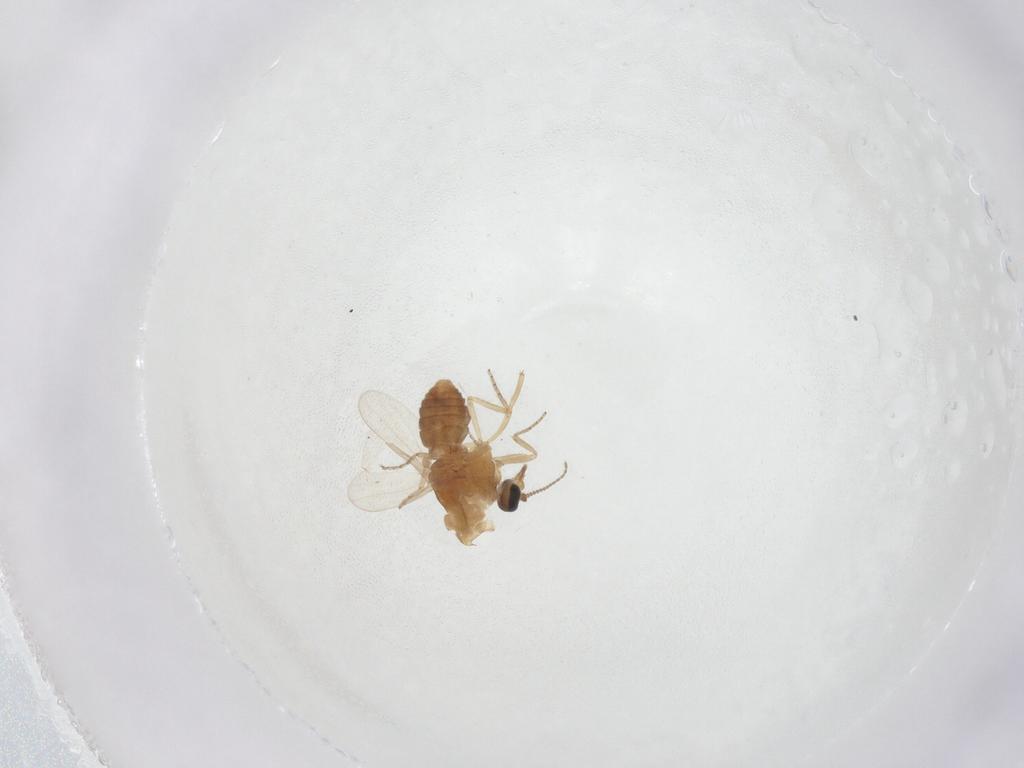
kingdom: Animalia
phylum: Arthropoda
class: Insecta
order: Diptera
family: Ceratopogonidae
